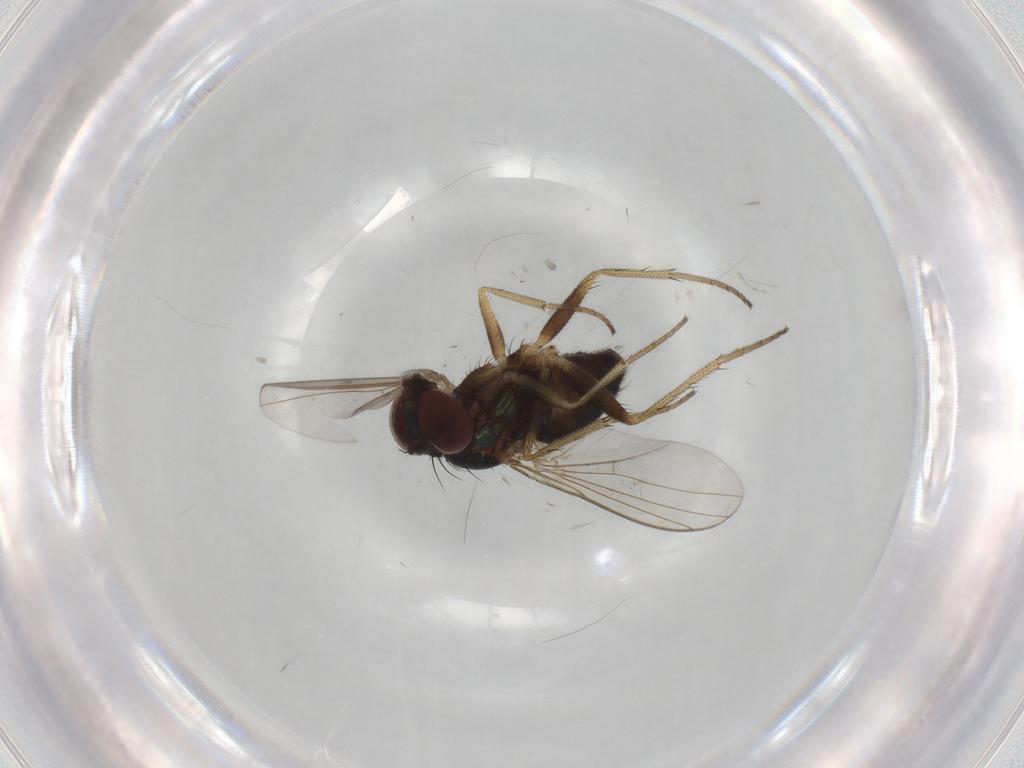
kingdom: Animalia
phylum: Arthropoda
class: Insecta
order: Diptera
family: Dolichopodidae
